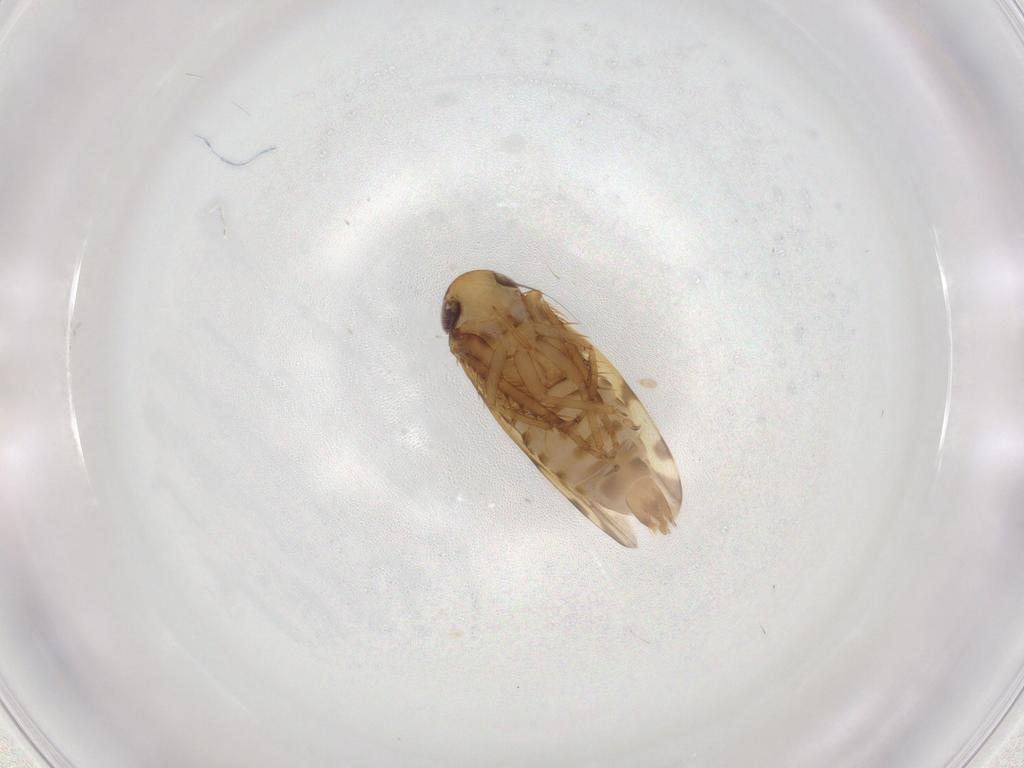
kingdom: Animalia
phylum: Arthropoda
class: Insecta
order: Hemiptera
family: Cicadellidae
